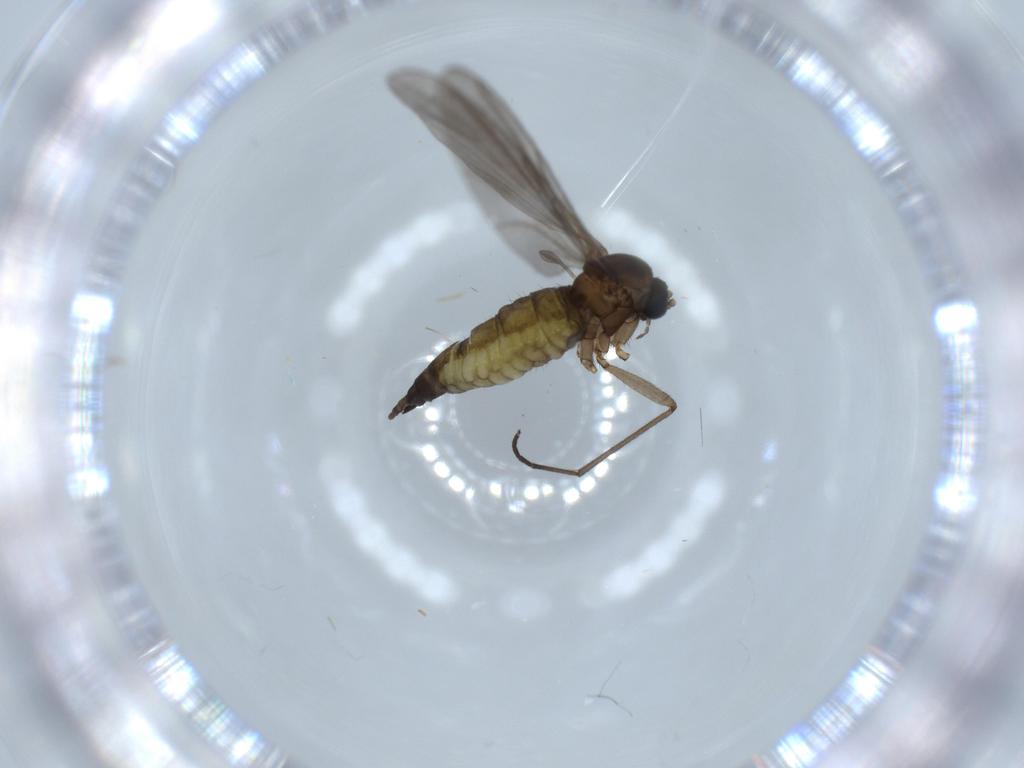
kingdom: Animalia
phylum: Arthropoda
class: Insecta
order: Diptera
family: Sciaridae
